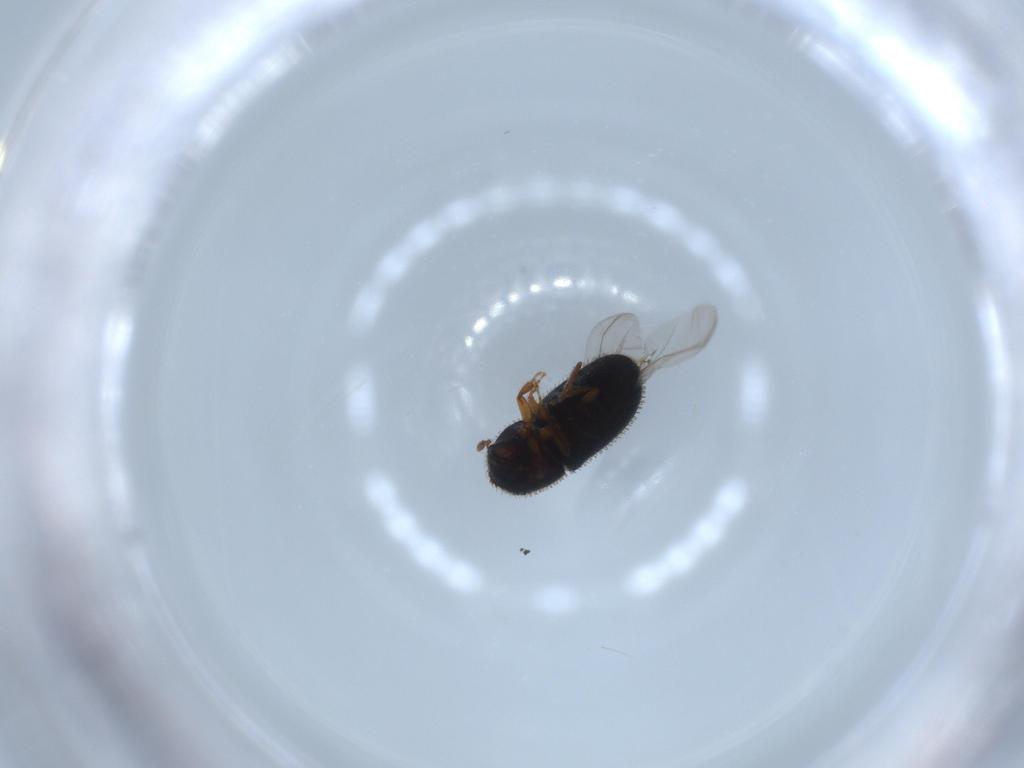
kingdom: Animalia
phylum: Arthropoda
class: Insecta
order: Coleoptera
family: Curculionidae
